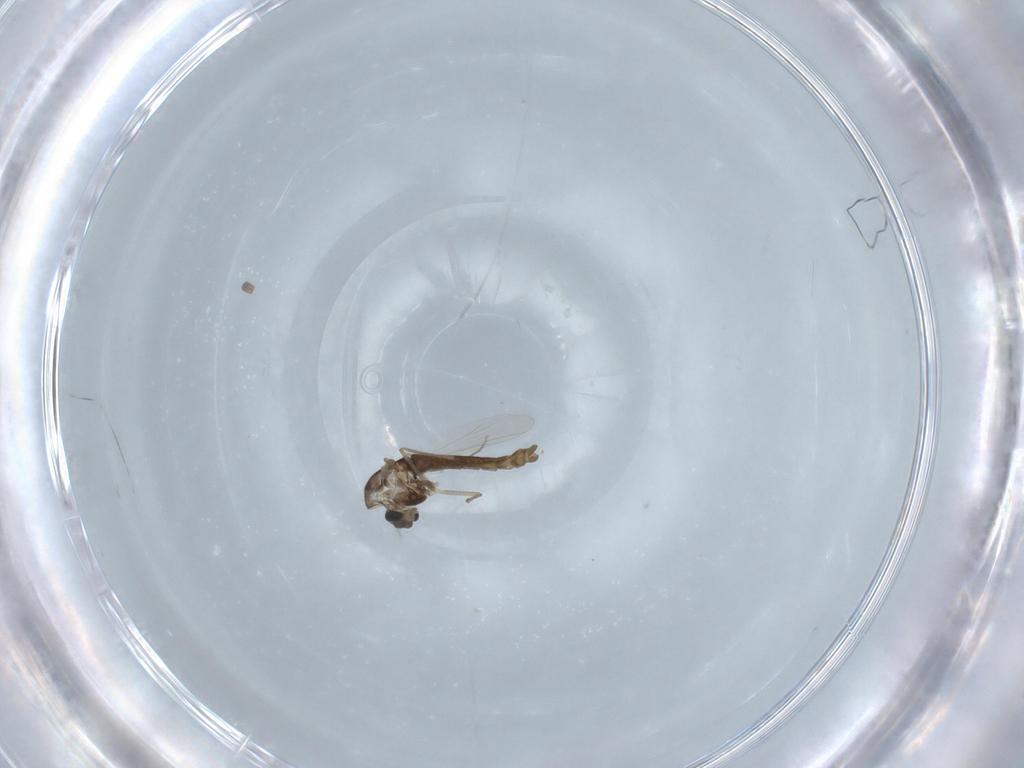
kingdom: Animalia
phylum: Arthropoda
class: Insecta
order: Diptera
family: Chironomidae
